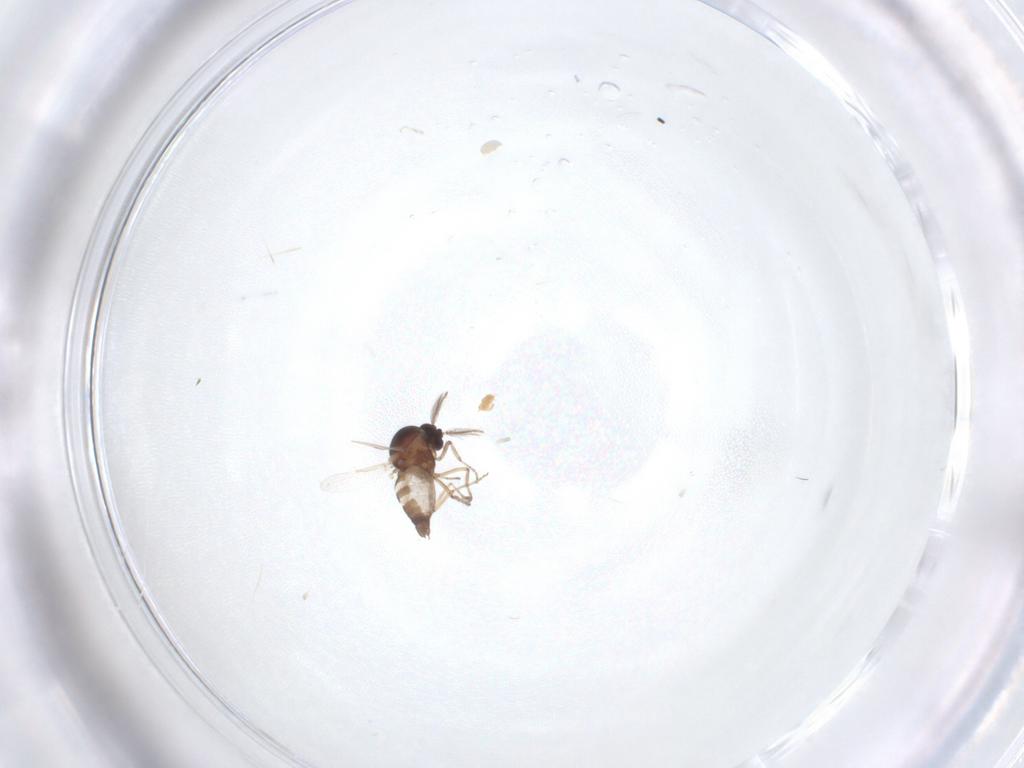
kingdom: Animalia
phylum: Arthropoda
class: Insecta
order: Diptera
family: Ceratopogonidae
